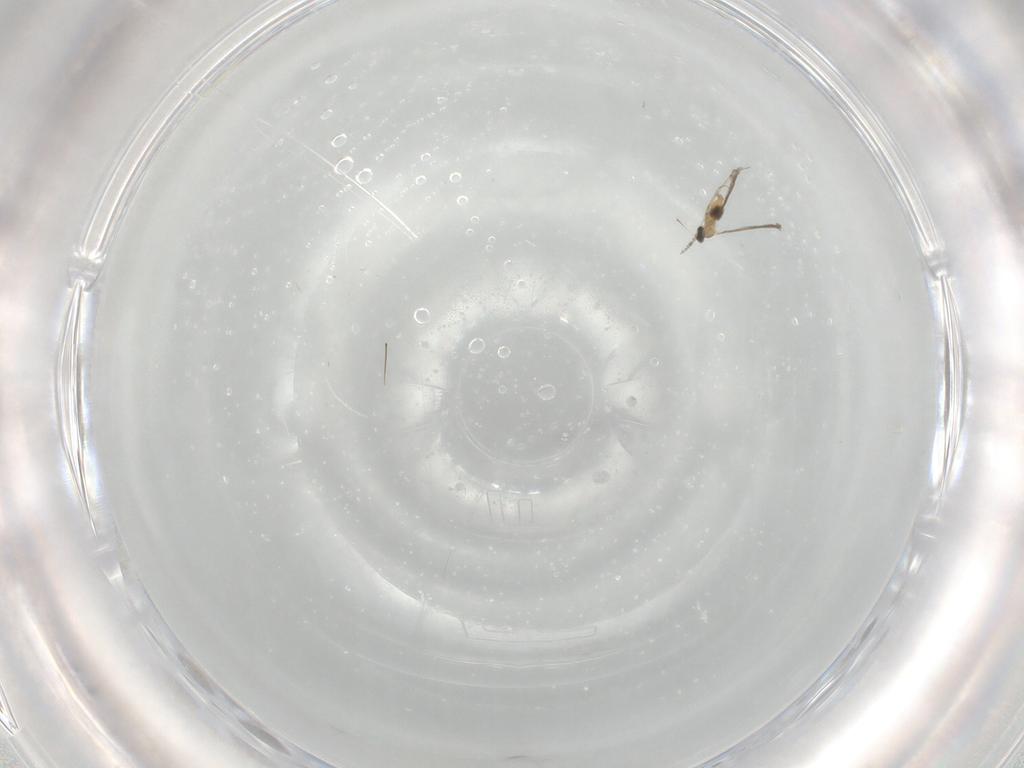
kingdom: Animalia
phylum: Arthropoda
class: Insecta
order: Diptera
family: Cecidomyiidae
